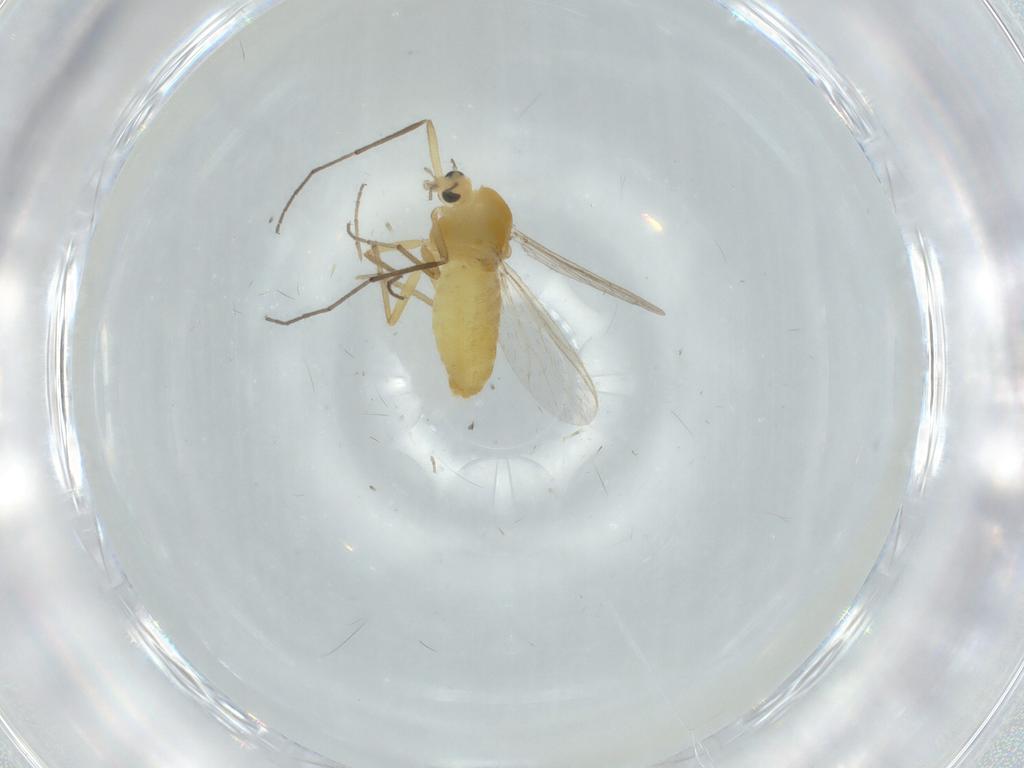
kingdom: Animalia
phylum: Arthropoda
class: Insecta
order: Diptera
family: Chironomidae
